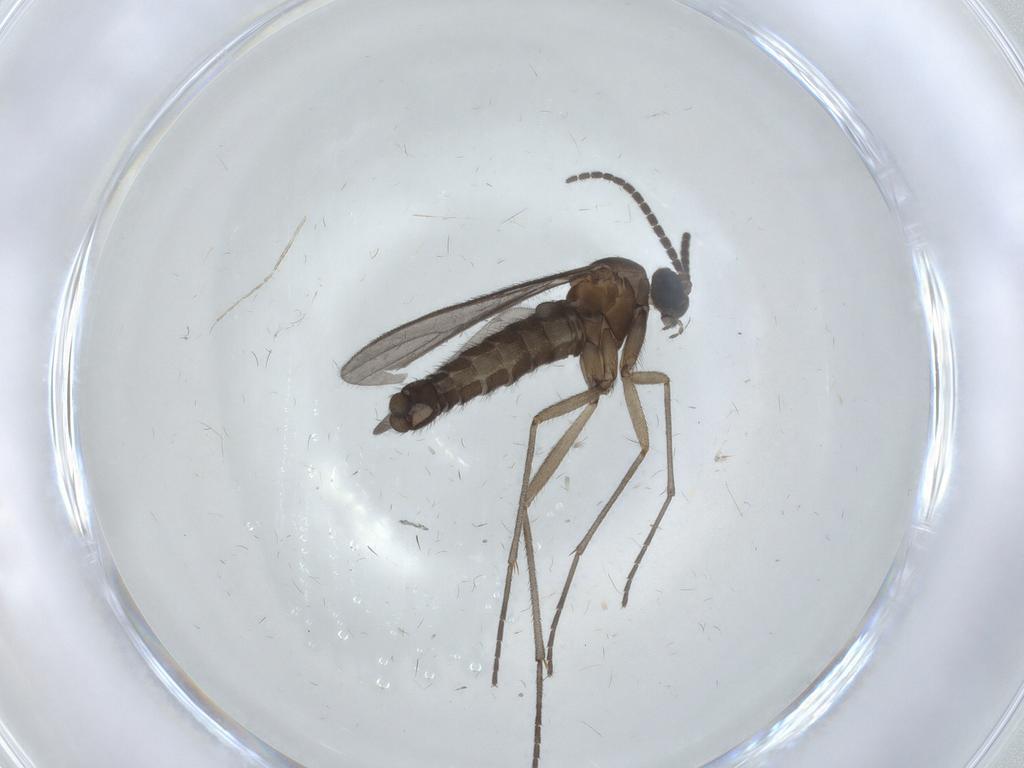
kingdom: Animalia
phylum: Arthropoda
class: Insecta
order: Diptera
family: Sciaridae
